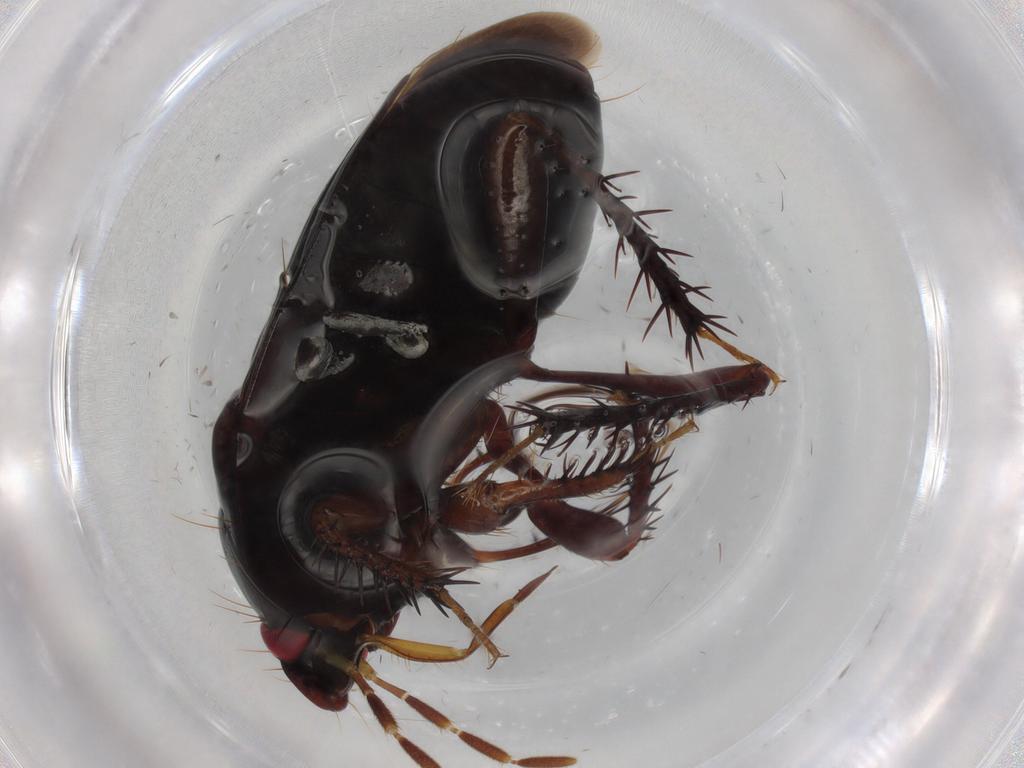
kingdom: Animalia
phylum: Arthropoda
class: Insecta
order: Hemiptera
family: Cydnidae
